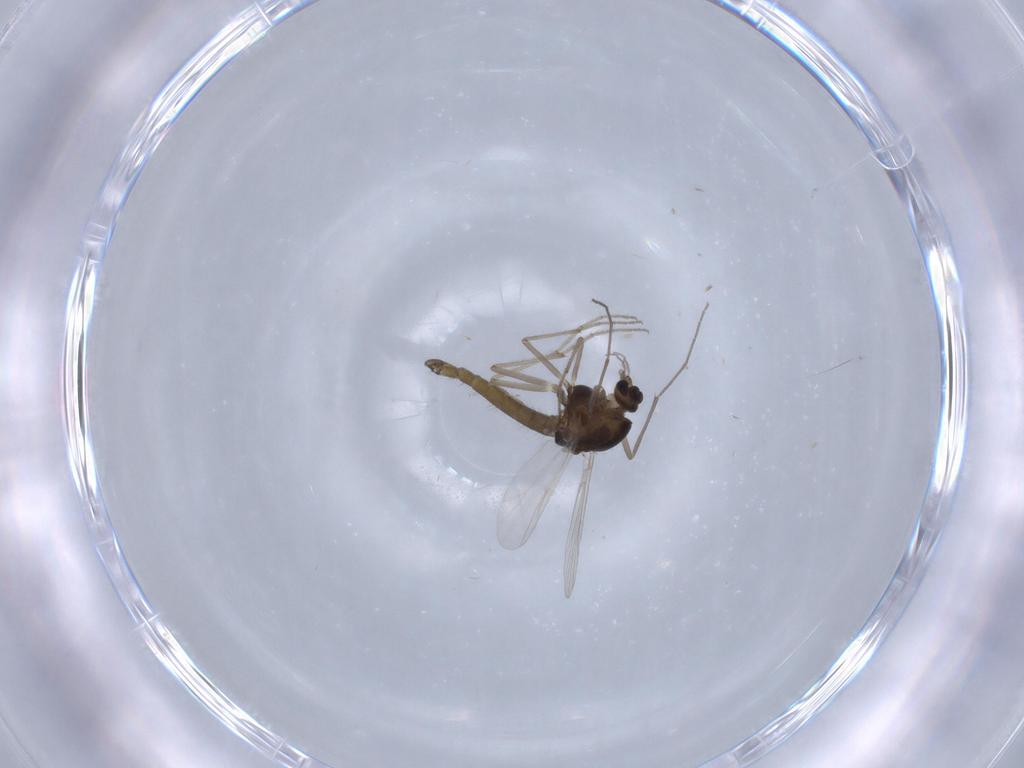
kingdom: Animalia
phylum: Arthropoda
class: Insecta
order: Diptera
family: Chironomidae
